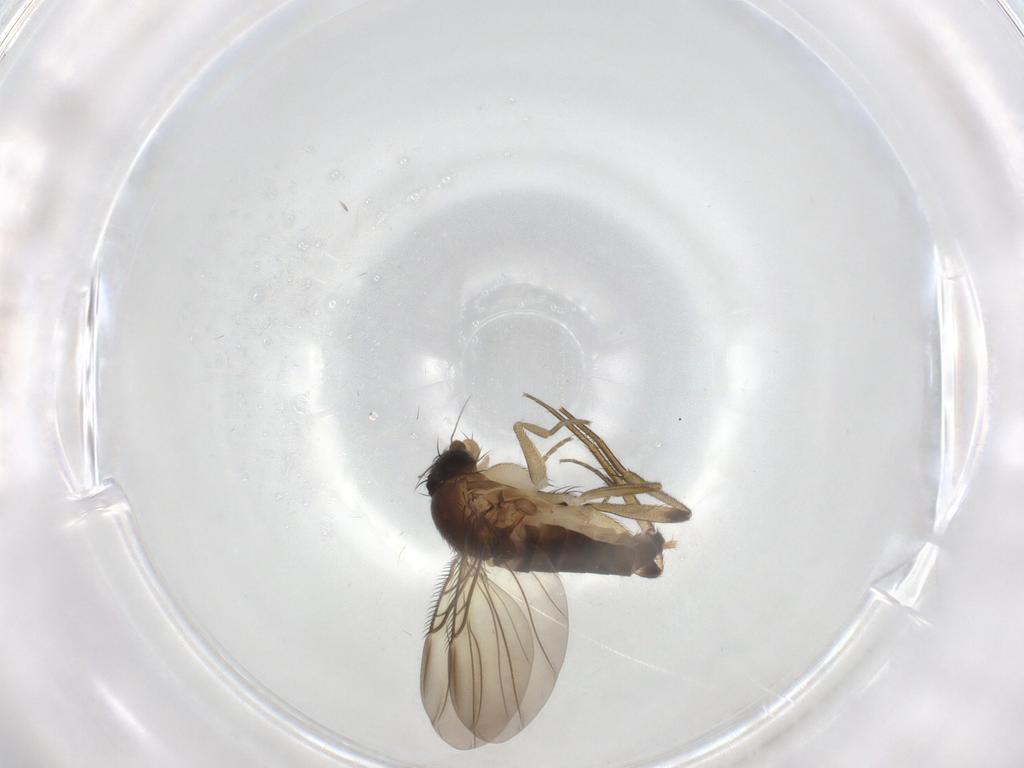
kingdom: Animalia
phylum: Arthropoda
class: Insecta
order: Diptera
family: Phoridae
